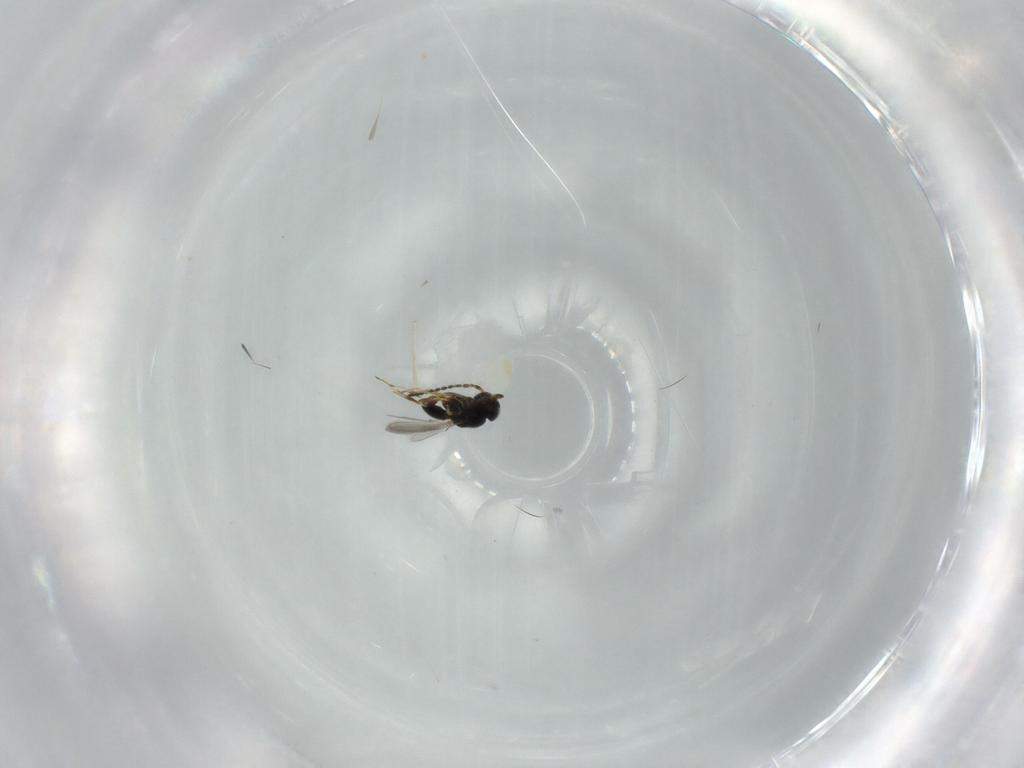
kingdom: Animalia
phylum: Arthropoda
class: Insecta
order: Hymenoptera
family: Scelionidae
